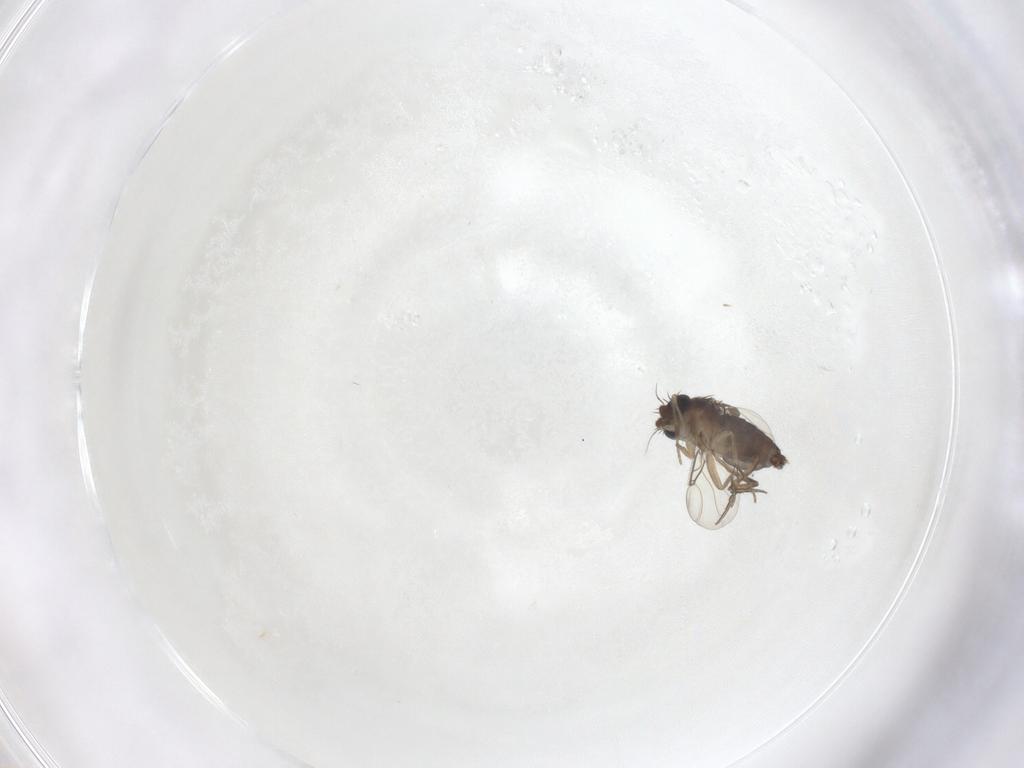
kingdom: Animalia
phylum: Arthropoda
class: Insecta
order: Diptera
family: Phoridae
